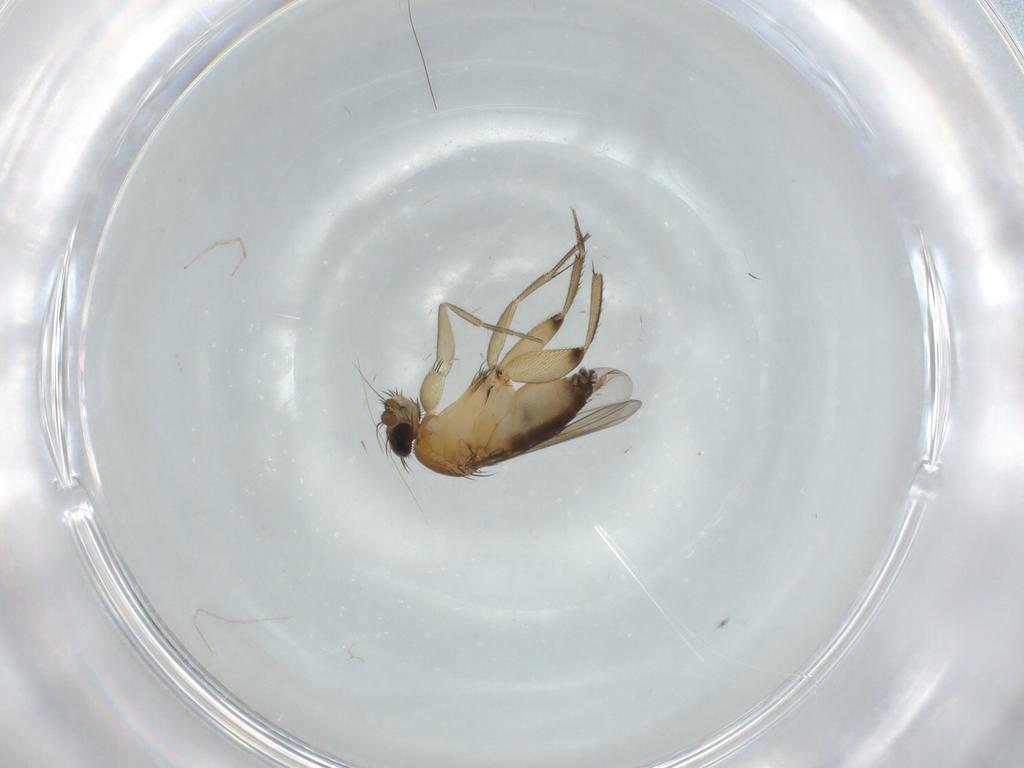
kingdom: Animalia
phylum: Arthropoda
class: Insecta
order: Diptera
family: Phoridae
